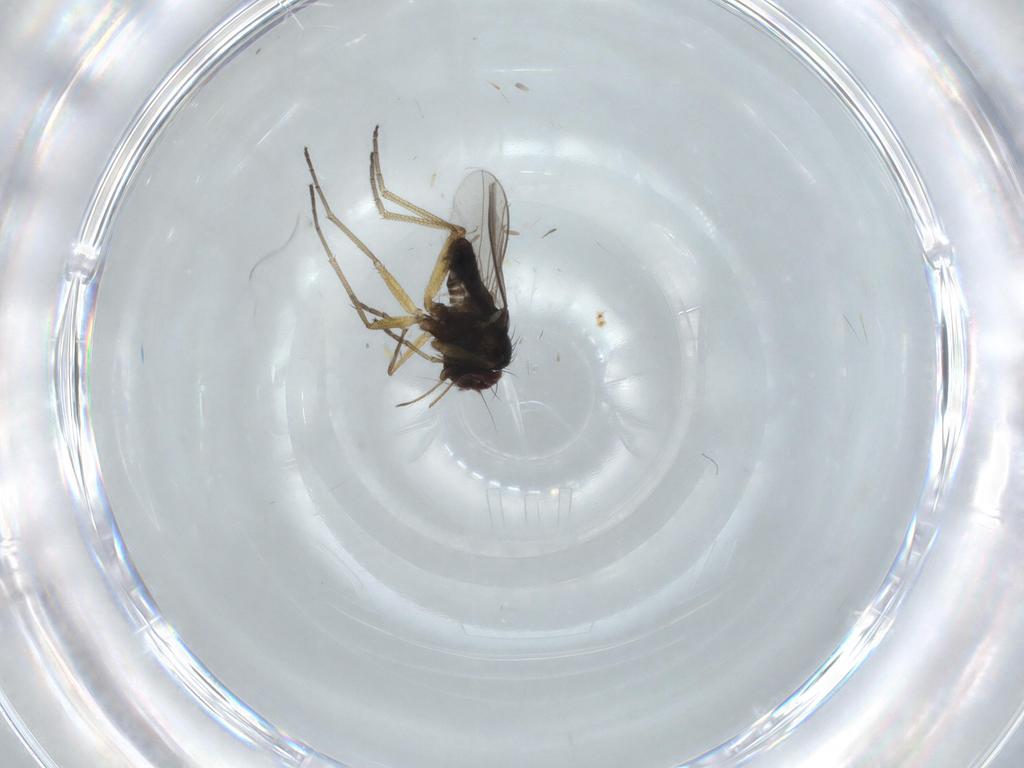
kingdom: Animalia
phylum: Arthropoda
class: Insecta
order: Diptera
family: Dolichopodidae
